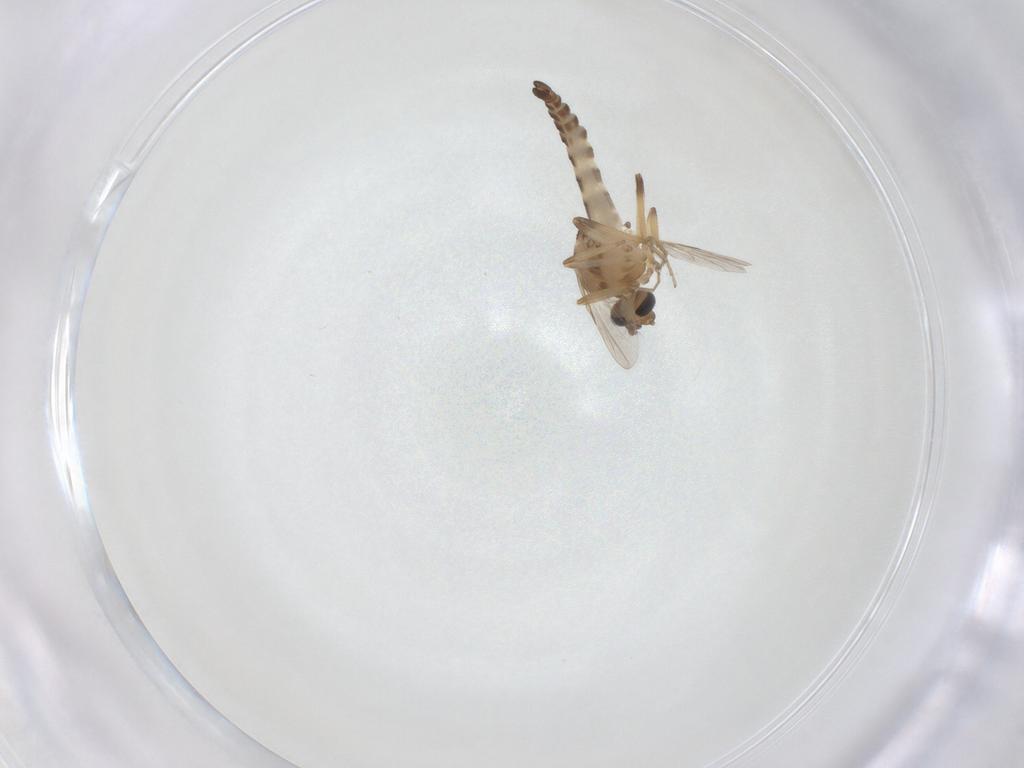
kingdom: Animalia
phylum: Arthropoda
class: Insecta
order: Diptera
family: Ceratopogonidae
